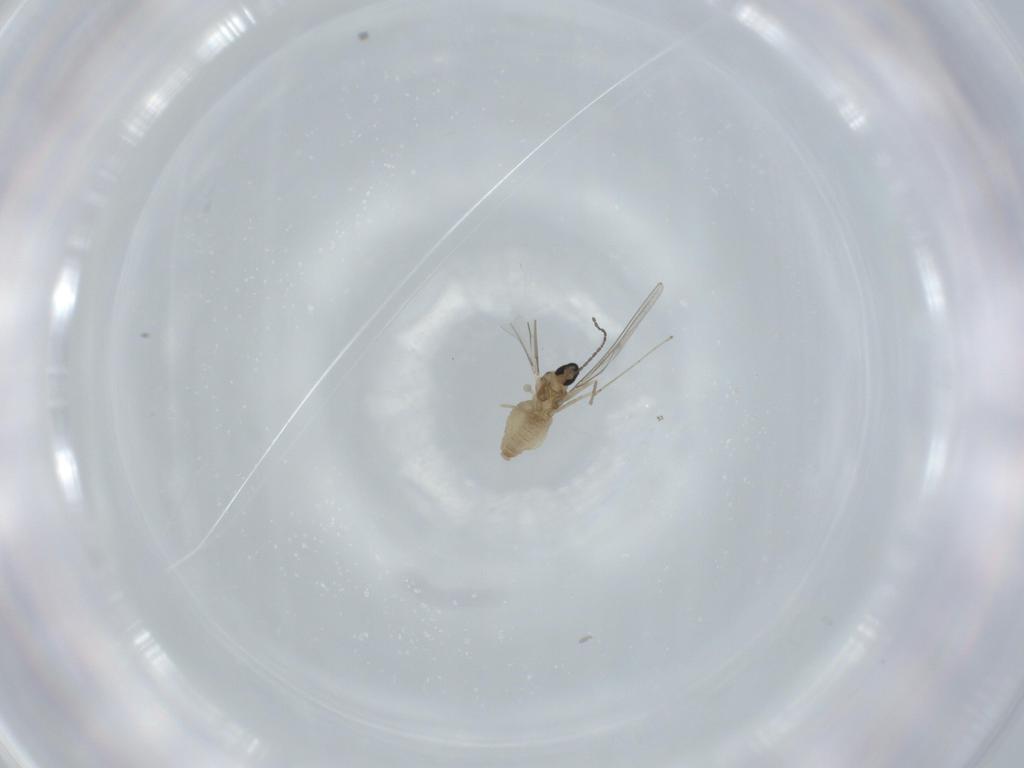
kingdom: Animalia
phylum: Arthropoda
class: Insecta
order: Diptera
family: Cecidomyiidae
